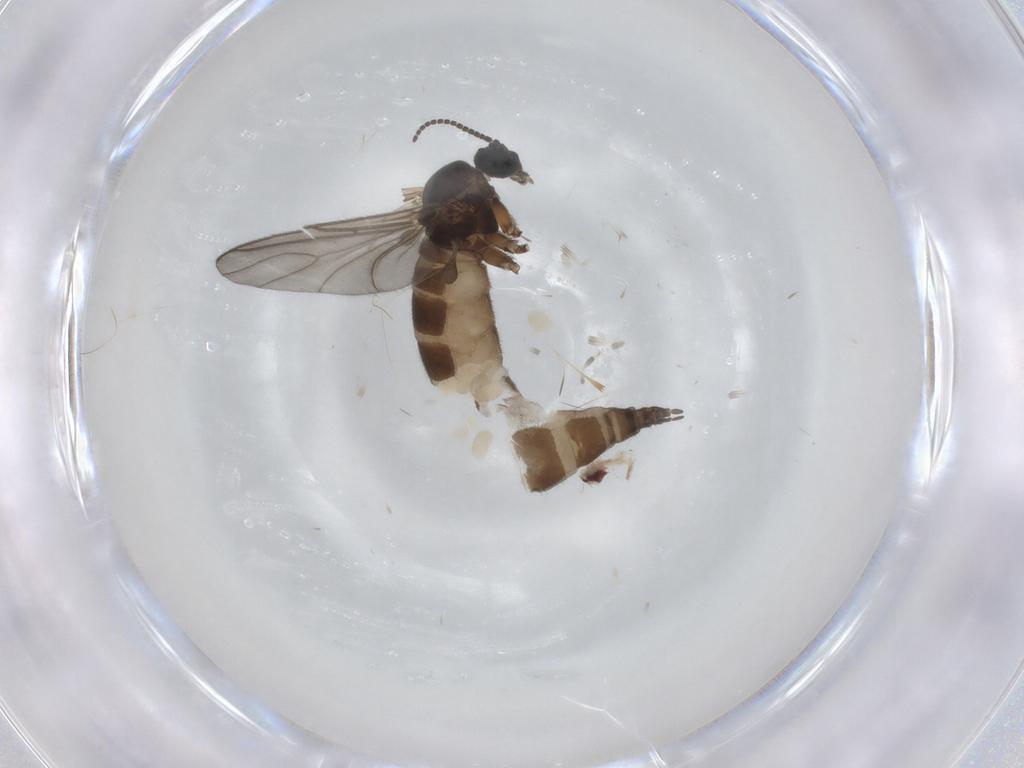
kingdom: Animalia
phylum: Arthropoda
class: Insecta
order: Diptera
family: Sciaridae
